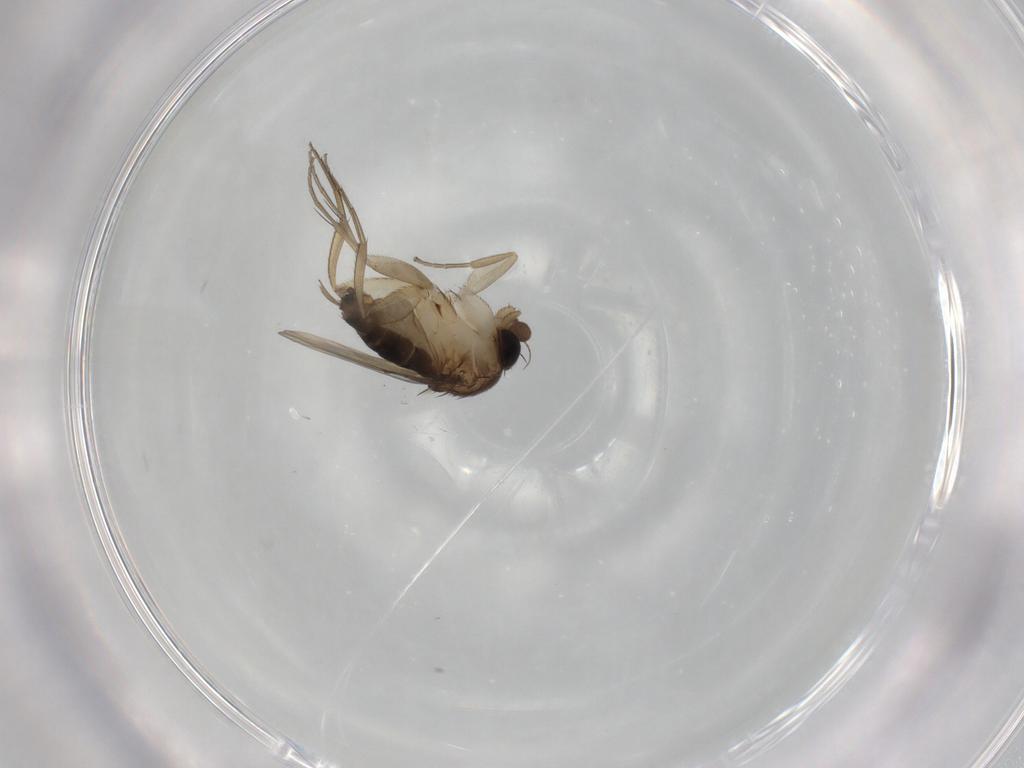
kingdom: Animalia
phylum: Arthropoda
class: Insecta
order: Diptera
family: Phoridae
